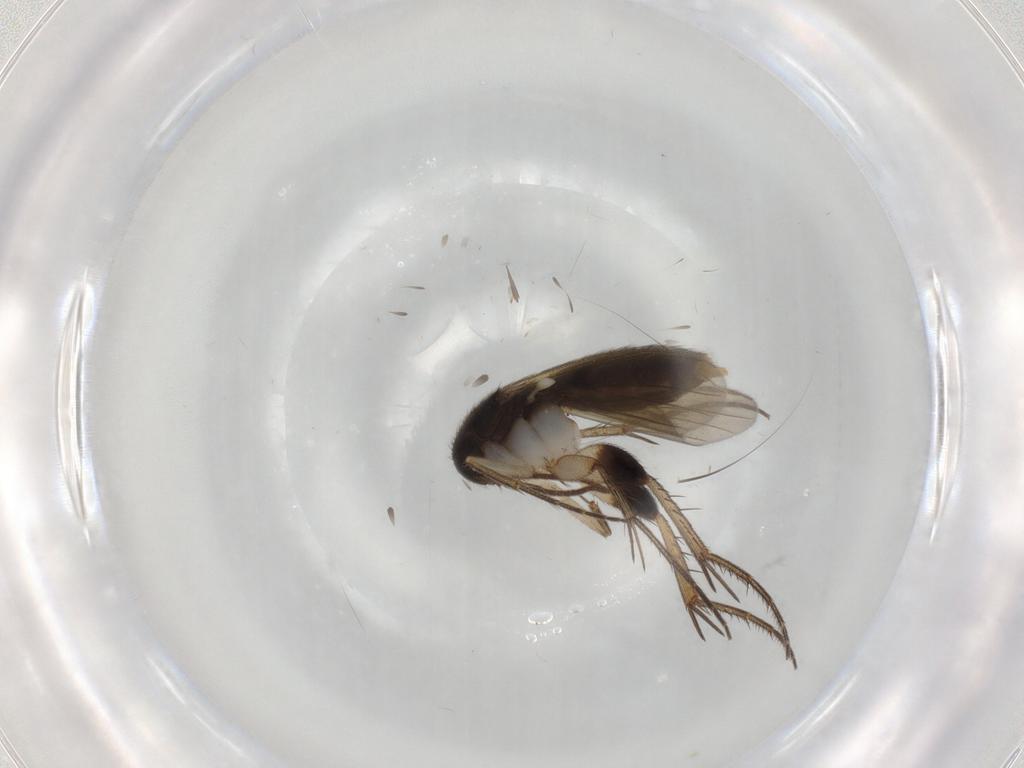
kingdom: Animalia
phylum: Arthropoda
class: Insecta
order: Diptera
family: Mycetophilidae
